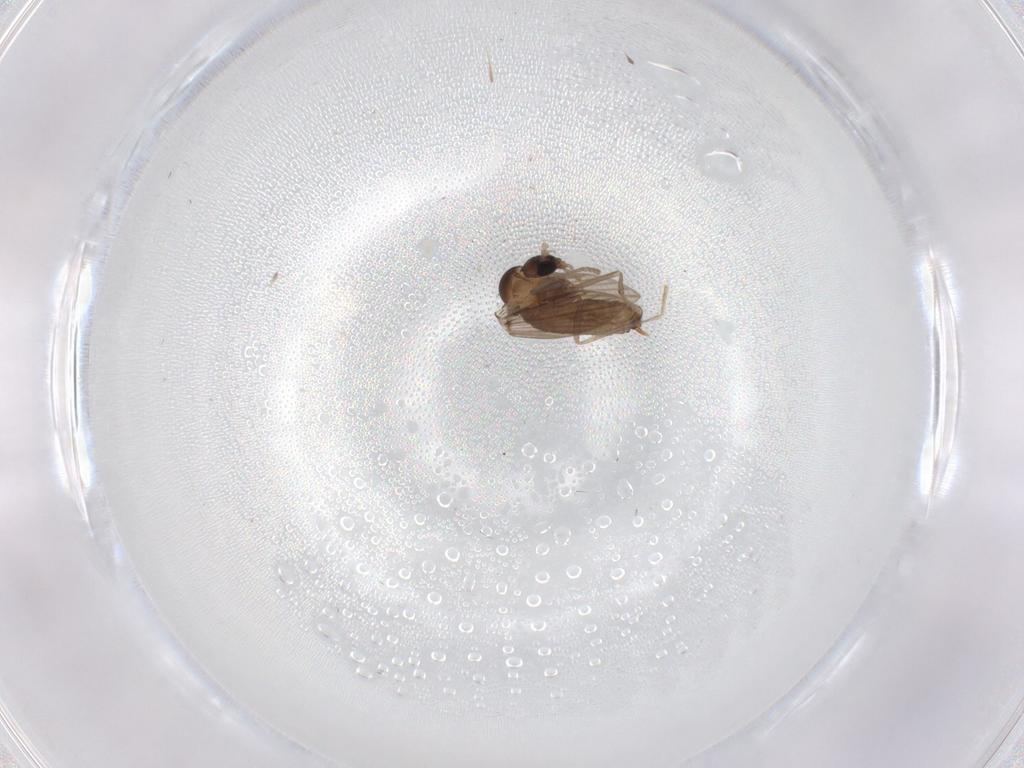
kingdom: Animalia
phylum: Arthropoda
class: Insecta
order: Diptera
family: Psychodidae
